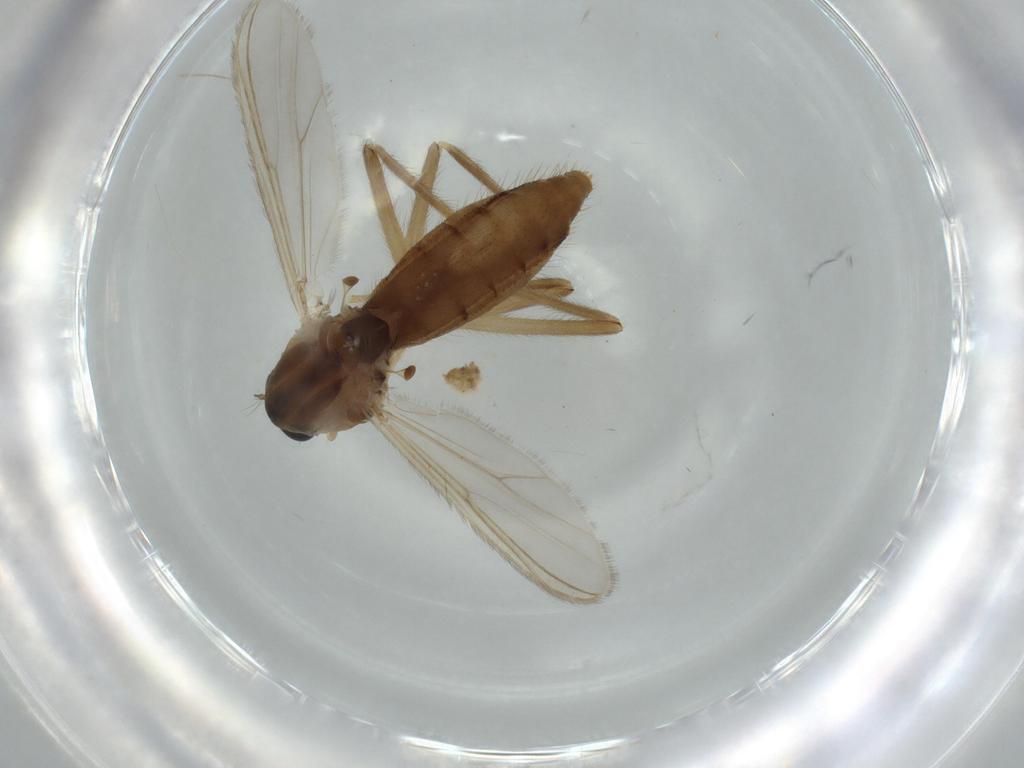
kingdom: Animalia
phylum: Arthropoda
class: Insecta
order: Diptera
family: Chironomidae
